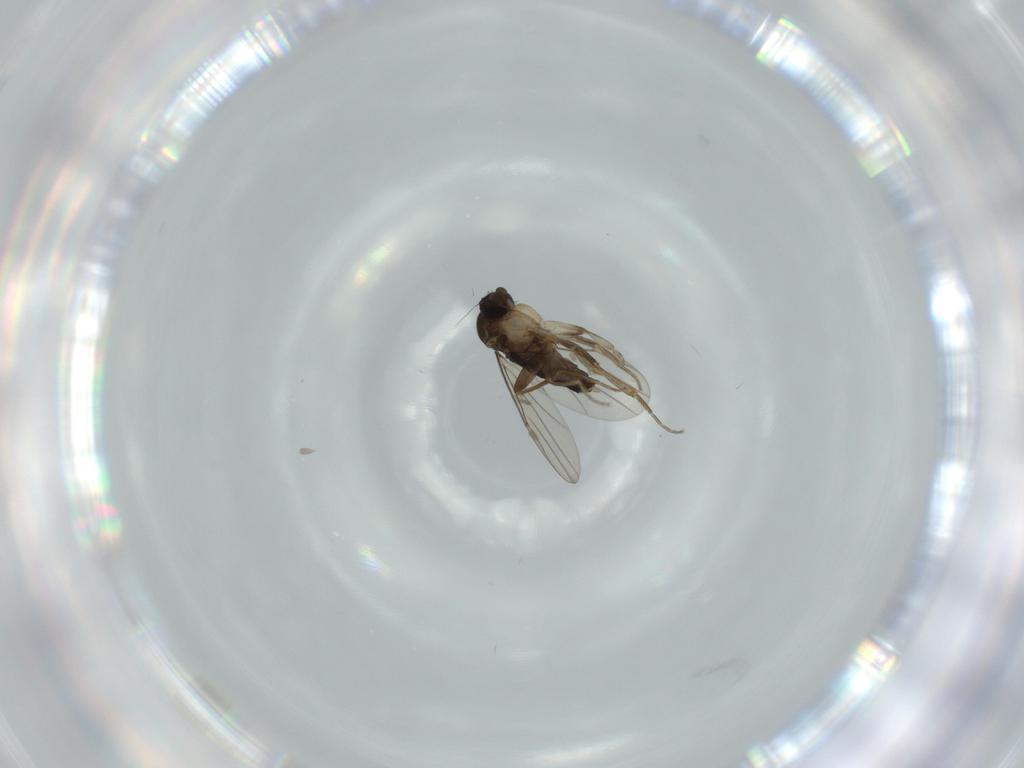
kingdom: Animalia
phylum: Arthropoda
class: Insecta
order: Diptera
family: Phoridae
